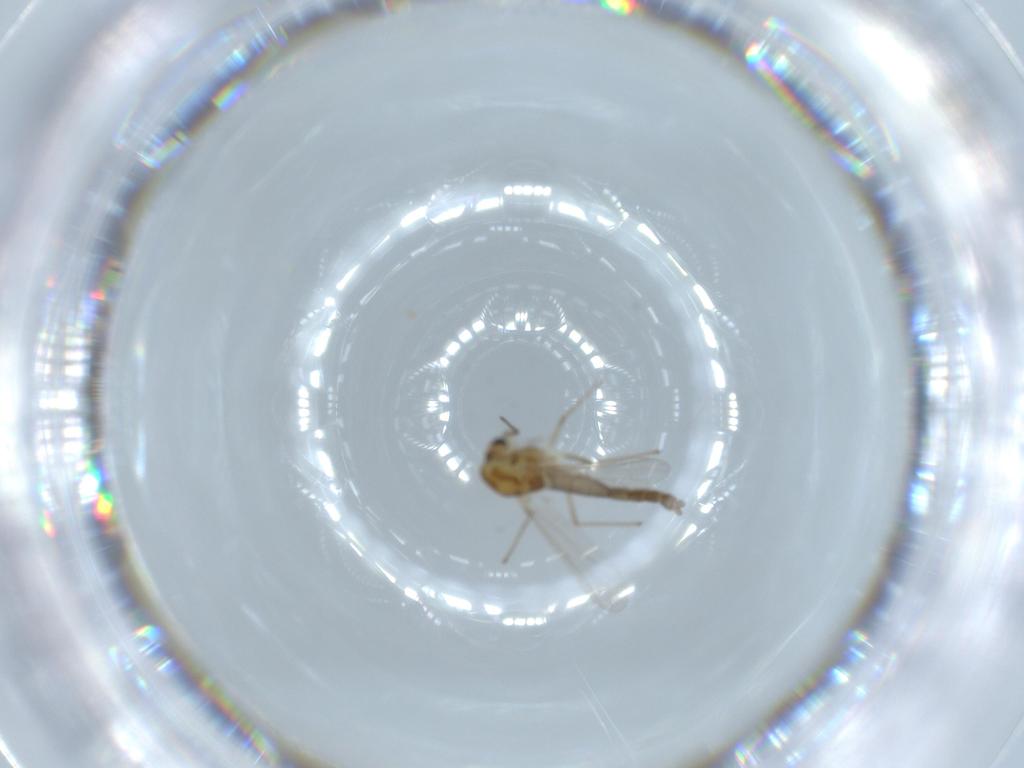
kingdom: Animalia
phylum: Arthropoda
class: Insecta
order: Diptera
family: Chironomidae
